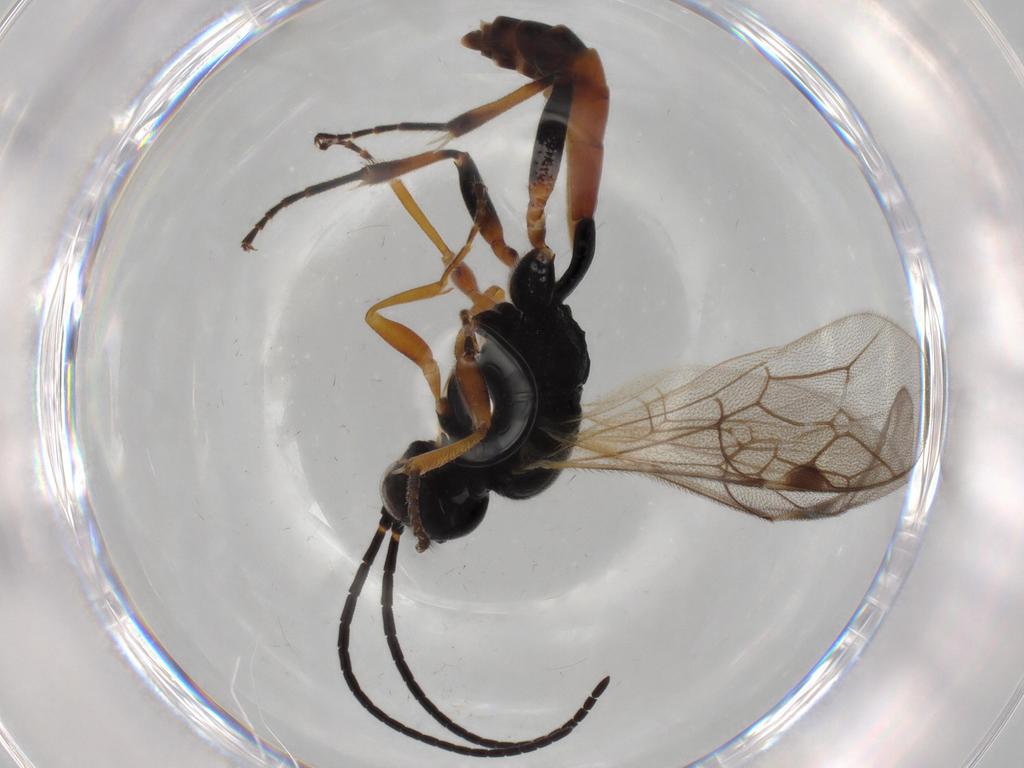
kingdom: Animalia
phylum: Arthropoda
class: Insecta
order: Hymenoptera
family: Ichneumonidae
